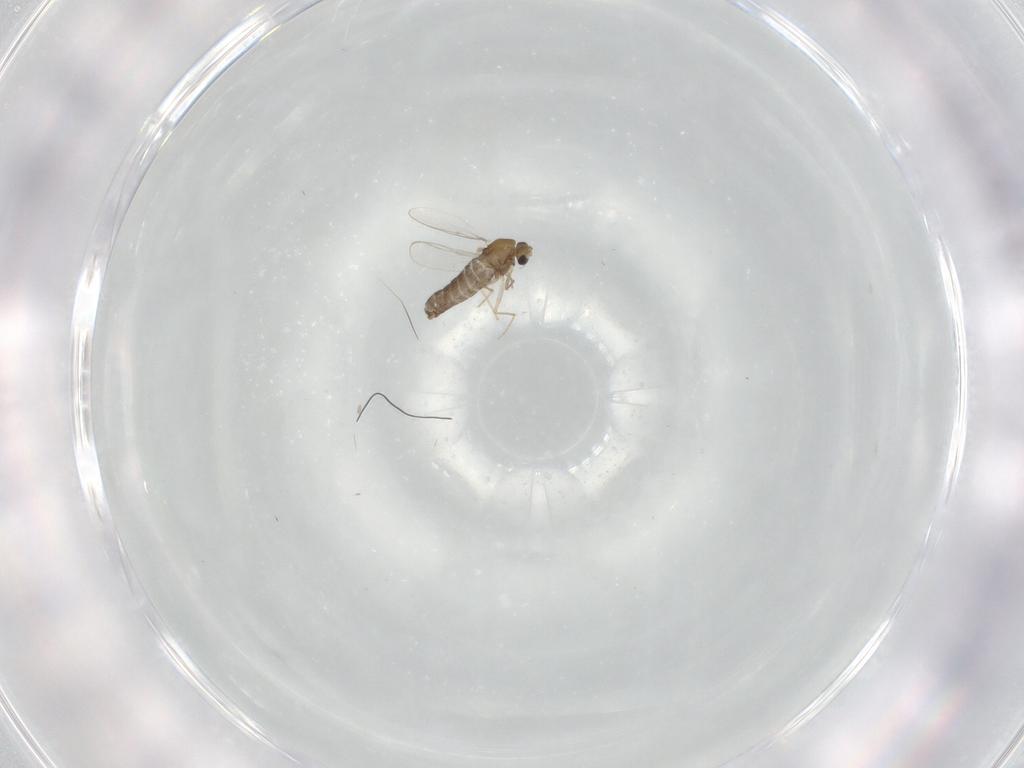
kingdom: Animalia
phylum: Arthropoda
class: Insecta
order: Diptera
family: Chironomidae
